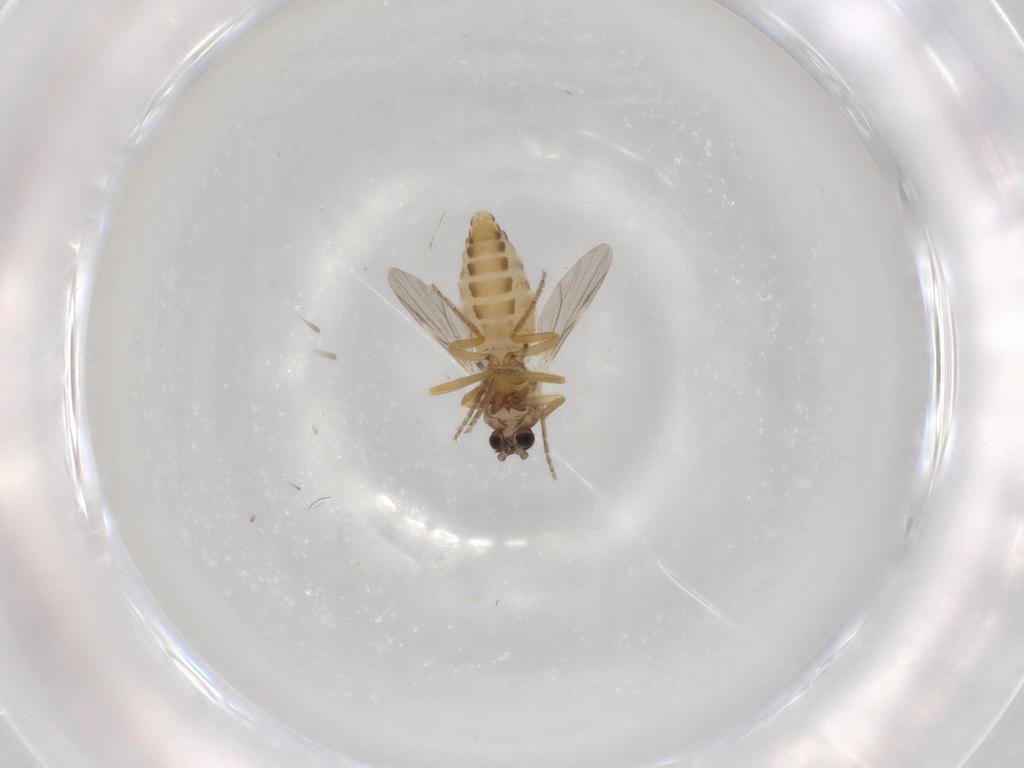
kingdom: Animalia
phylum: Arthropoda
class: Insecta
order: Diptera
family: Ceratopogonidae
